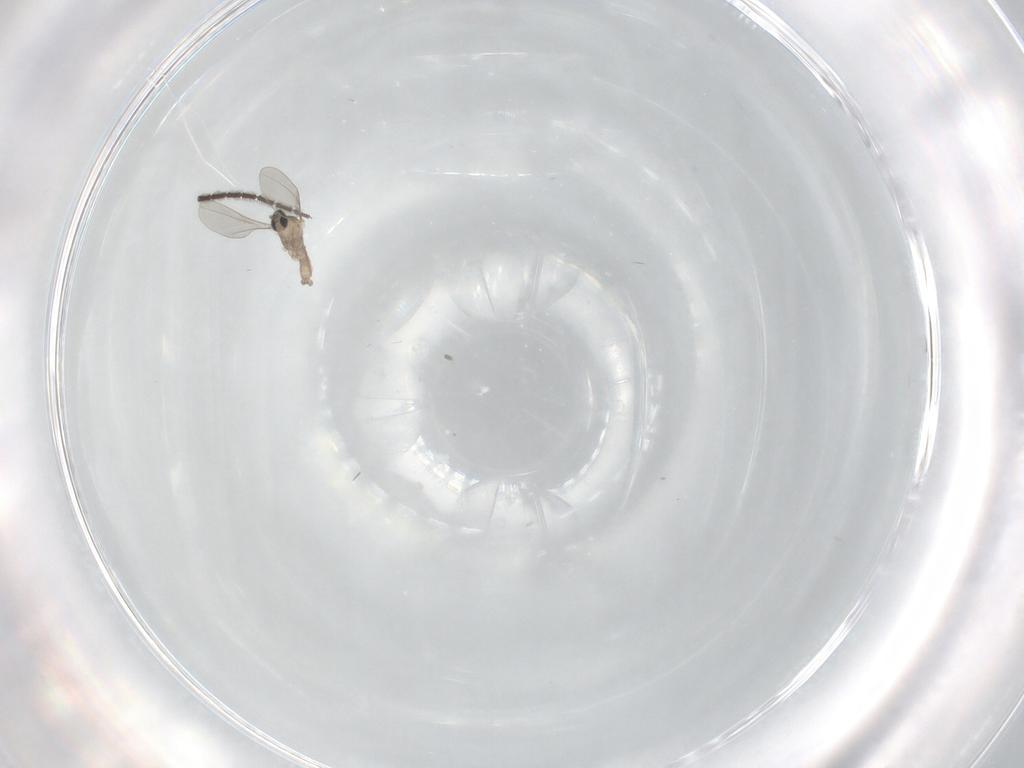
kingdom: Animalia
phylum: Arthropoda
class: Insecta
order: Diptera
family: Sciaridae
